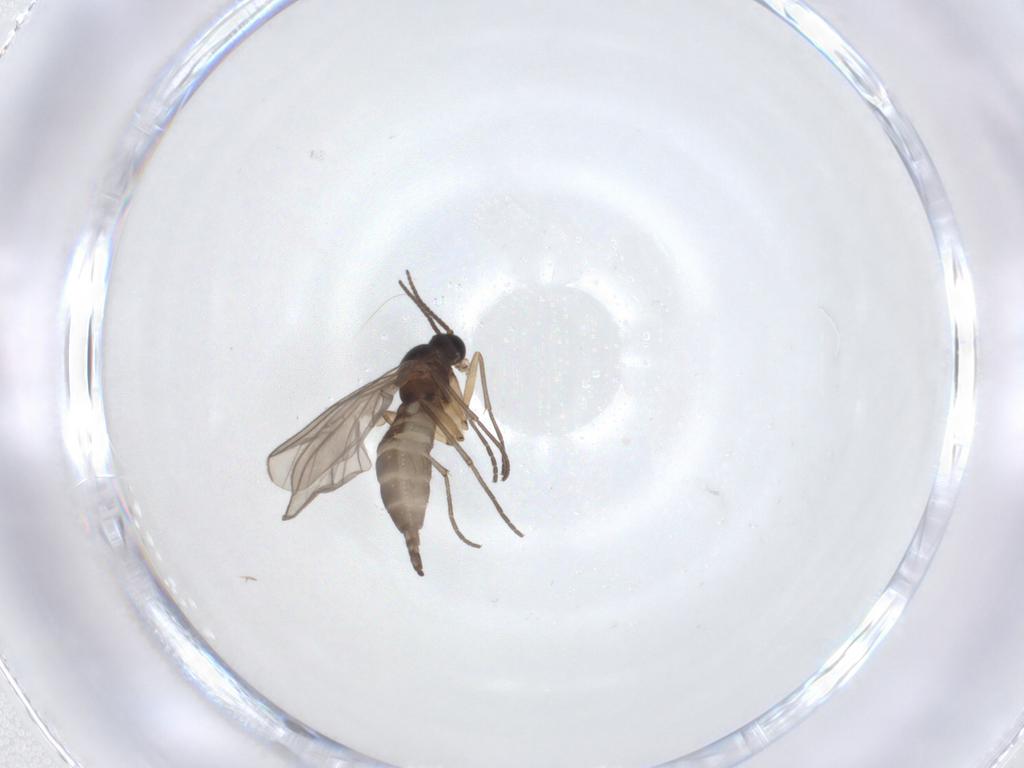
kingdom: Animalia
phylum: Arthropoda
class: Insecta
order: Diptera
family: Sciaridae
